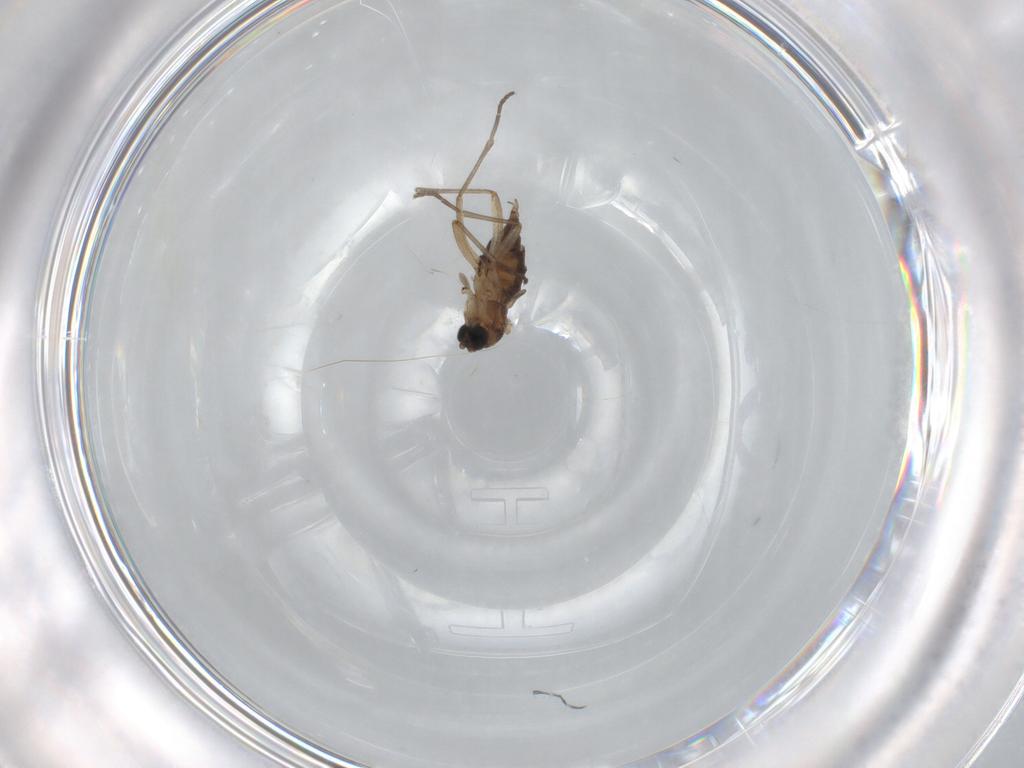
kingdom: Animalia
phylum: Arthropoda
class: Insecta
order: Diptera
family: Sciaridae
